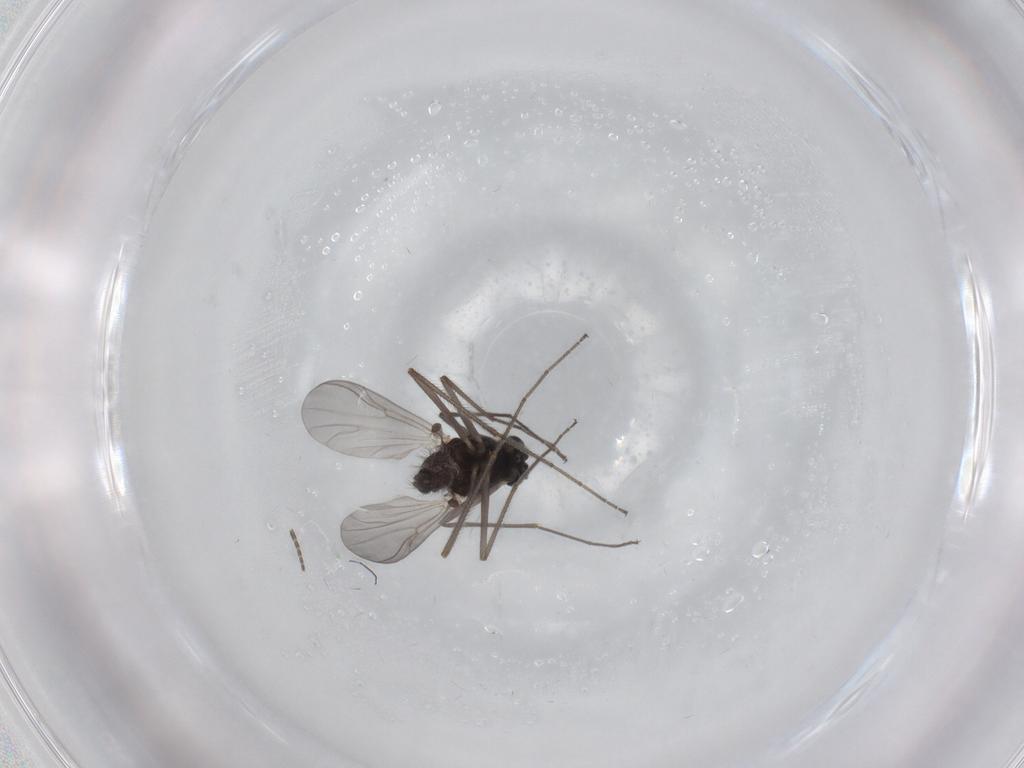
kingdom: Animalia
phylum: Arthropoda
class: Insecta
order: Diptera
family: Chironomidae
